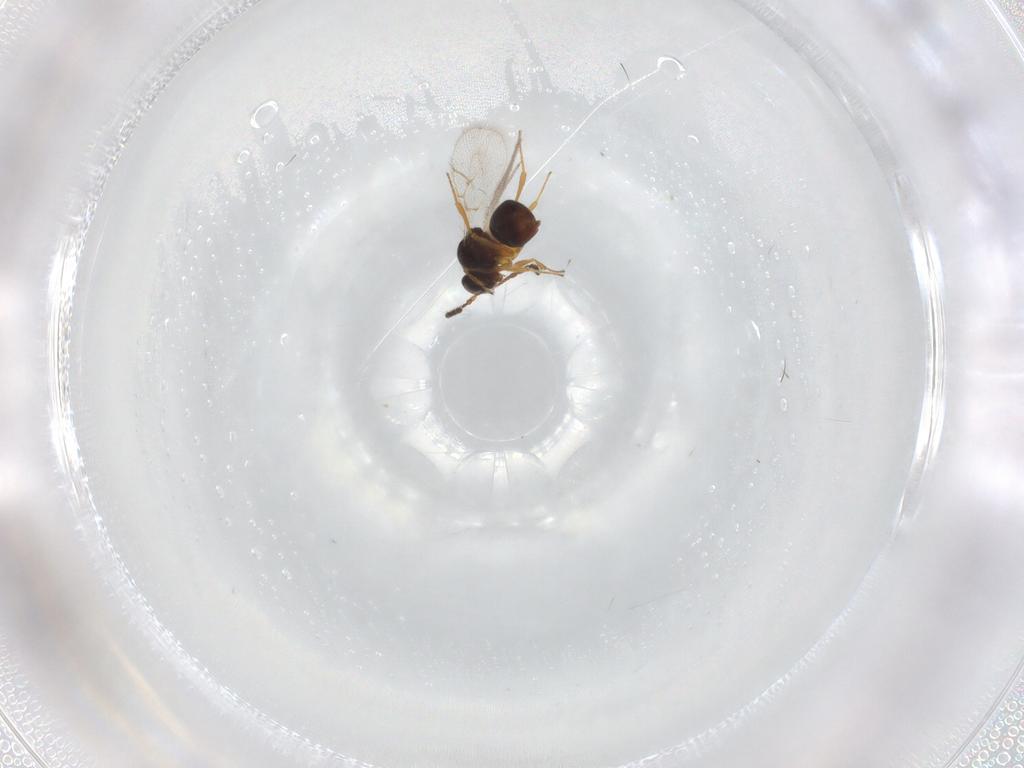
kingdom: Animalia
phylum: Arthropoda
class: Insecta
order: Hymenoptera
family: Figitidae
